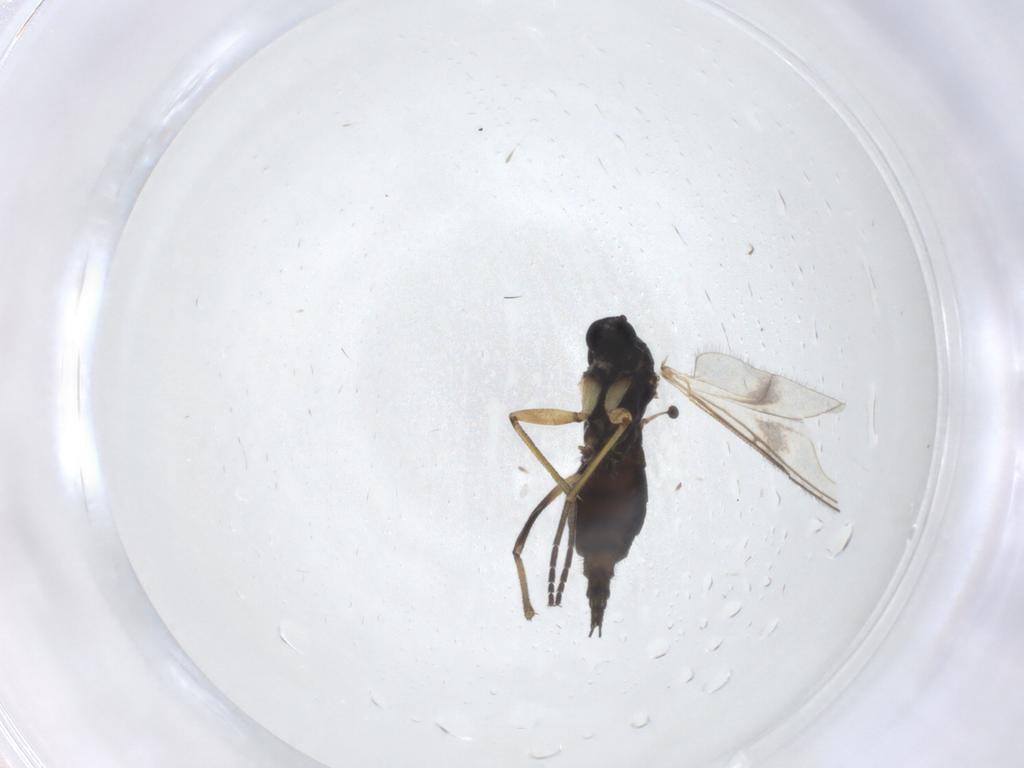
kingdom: Animalia
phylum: Arthropoda
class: Insecta
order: Diptera
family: Sciaridae
